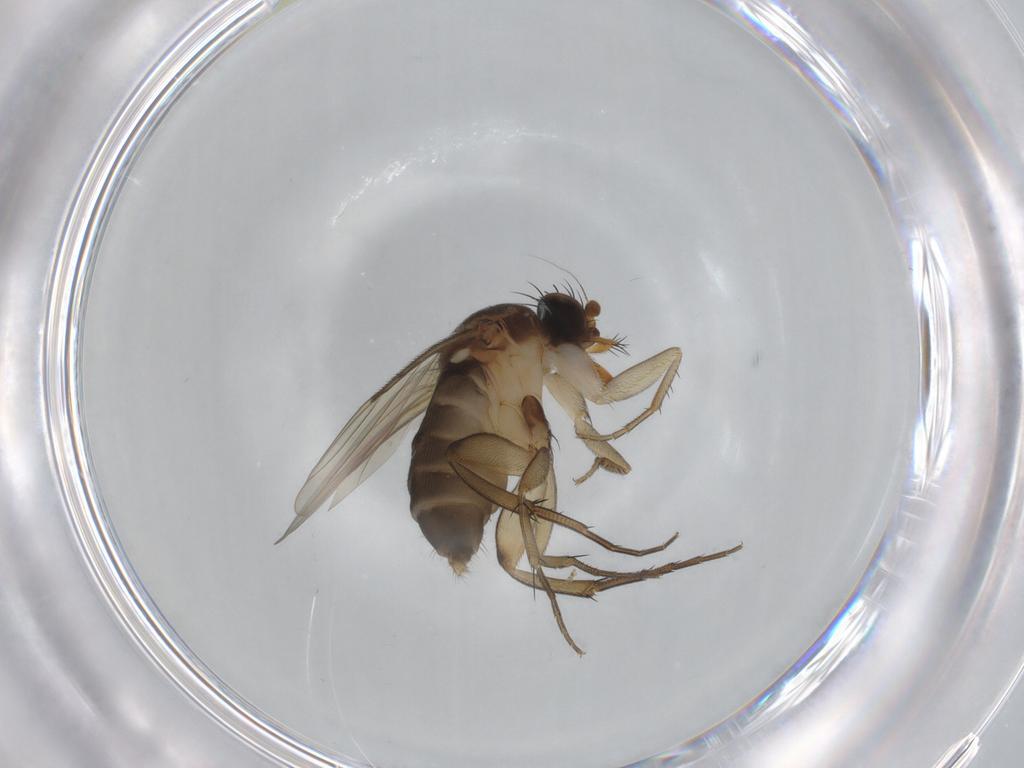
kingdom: Animalia
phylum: Arthropoda
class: Insecta
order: Diptera
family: Phoridae
